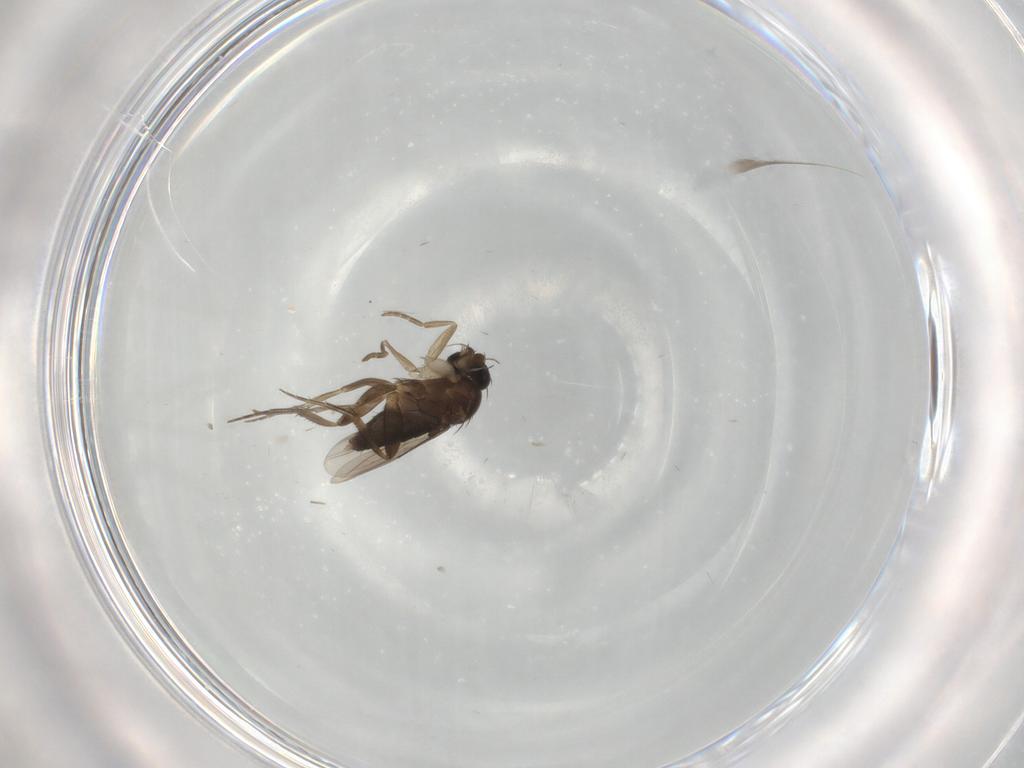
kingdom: Animalia
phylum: Arthropoda
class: Insecta
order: Diptera
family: Phoridae
